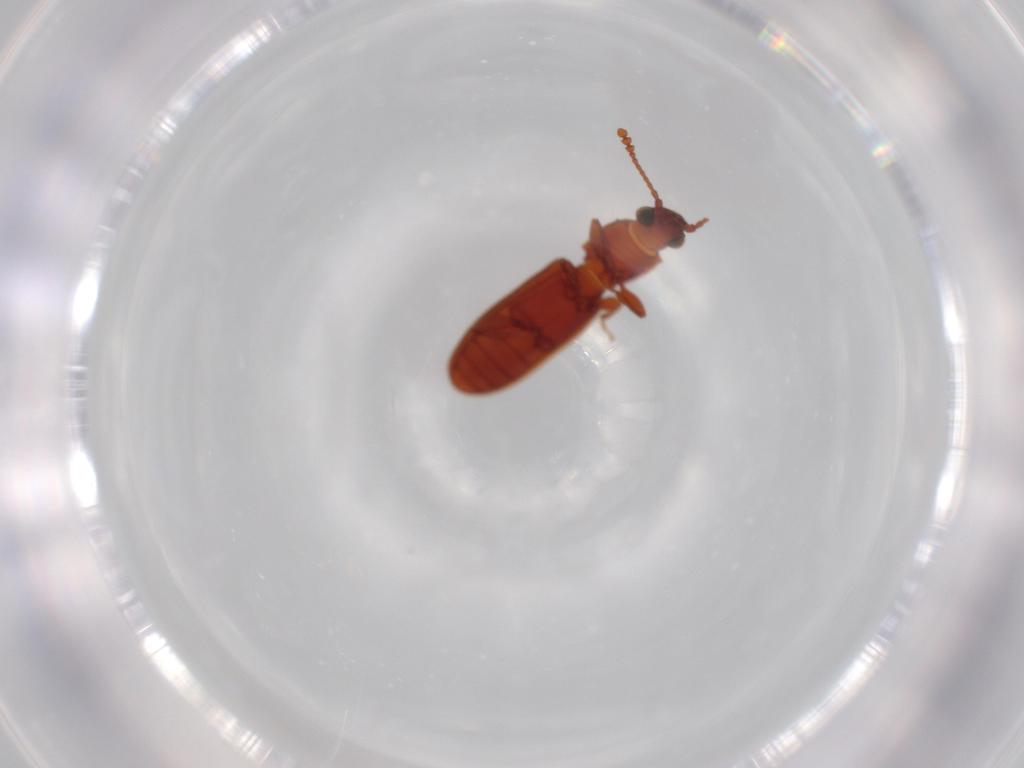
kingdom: Animalia
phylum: Arthropoda
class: Insecta
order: Coleoptera
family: Silvanidae
